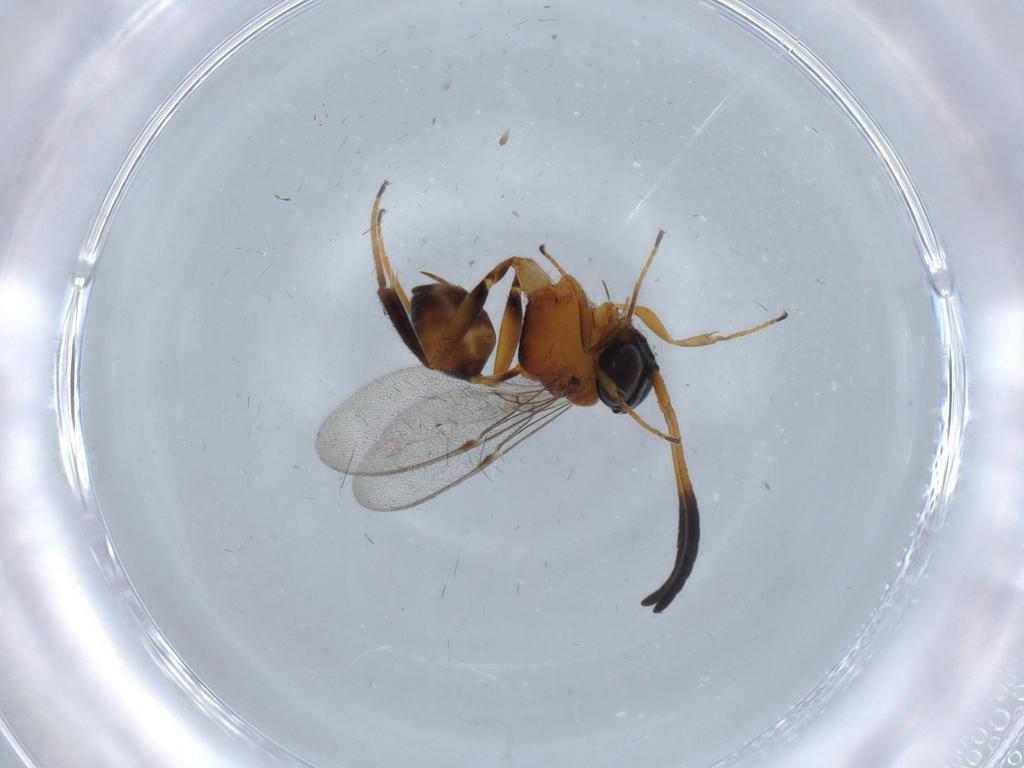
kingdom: Animalia
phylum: Arthropoda
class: Insecta
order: Hymenoptera
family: Evaniidae
